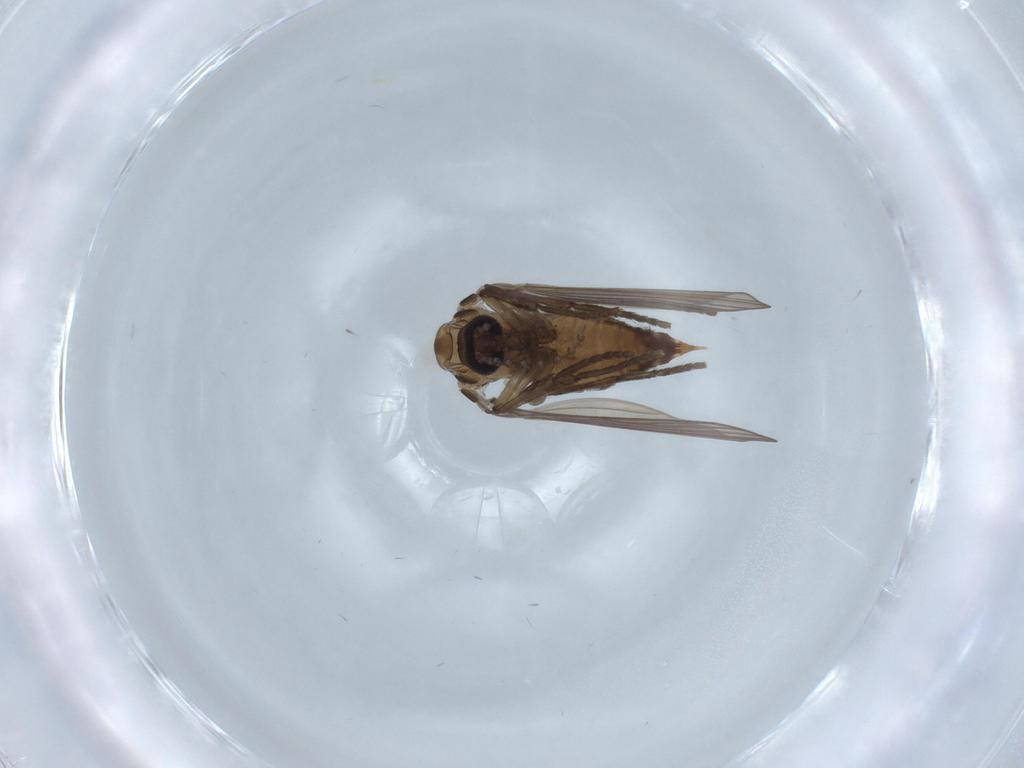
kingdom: Animalia
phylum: Arthropoda
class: Insecta
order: Diptera
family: Psychodidae
